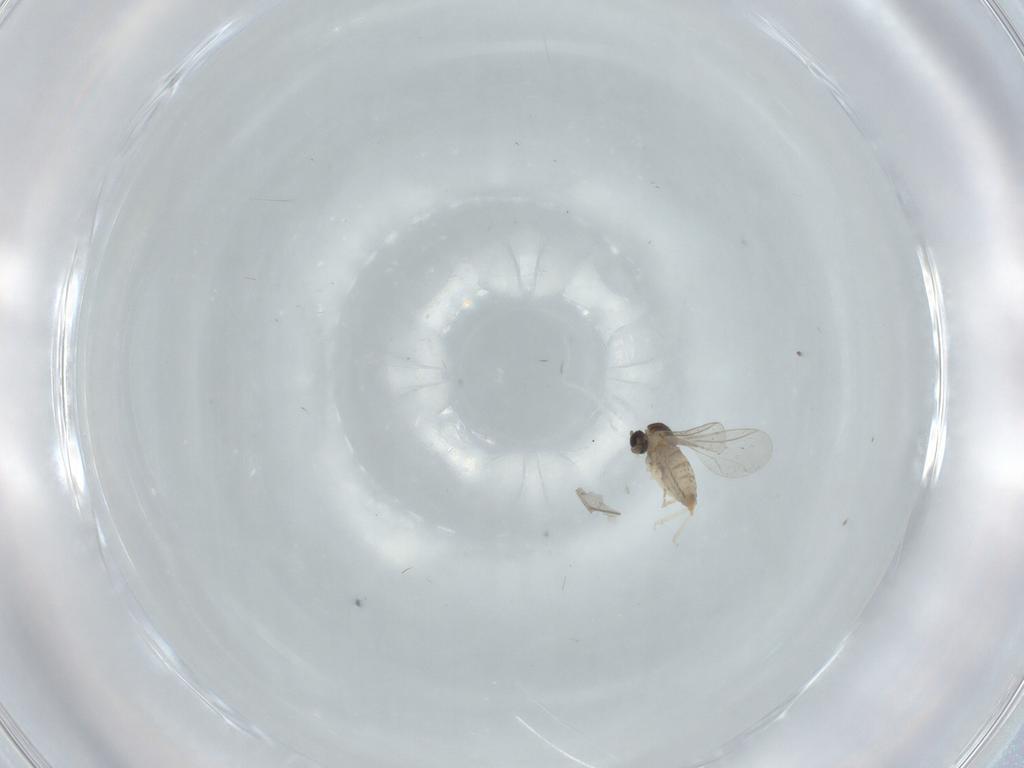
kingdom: Animalia
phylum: Arthropoda
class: Insecta
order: Diptera
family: Cecidomyiidae
